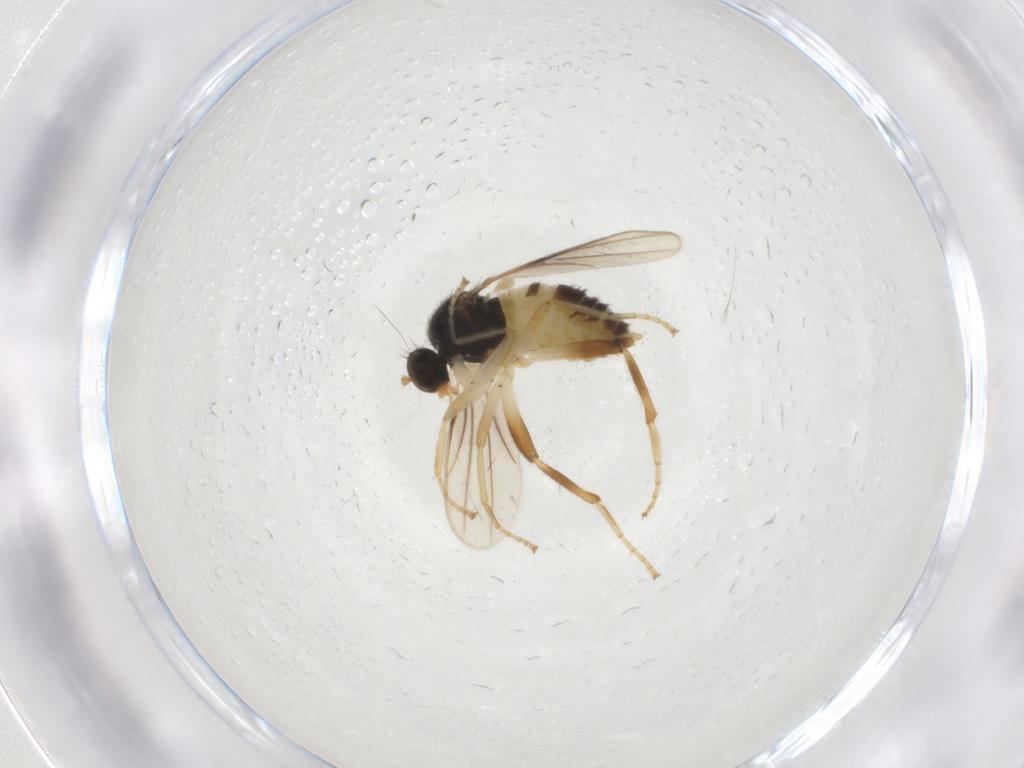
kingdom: Animalia
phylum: Arthropoda
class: Insecta
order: Diptera
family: Hybotidae
